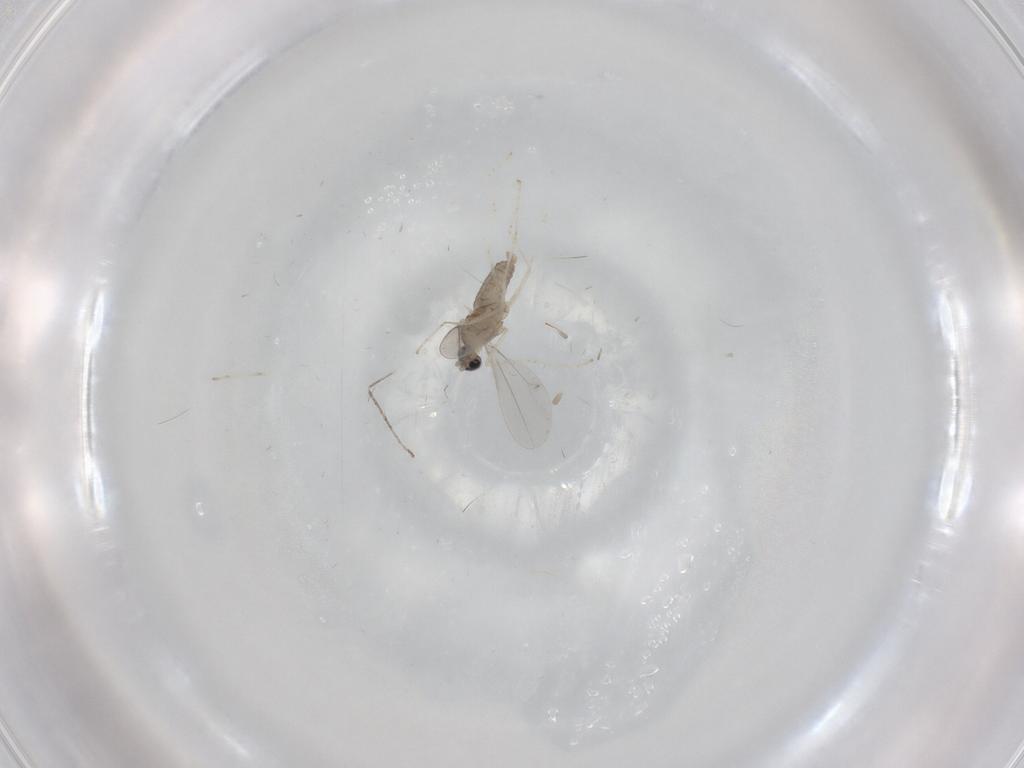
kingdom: Animalia
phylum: Arthropoda
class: Insecta
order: Diptera
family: Cecidomyiidae
